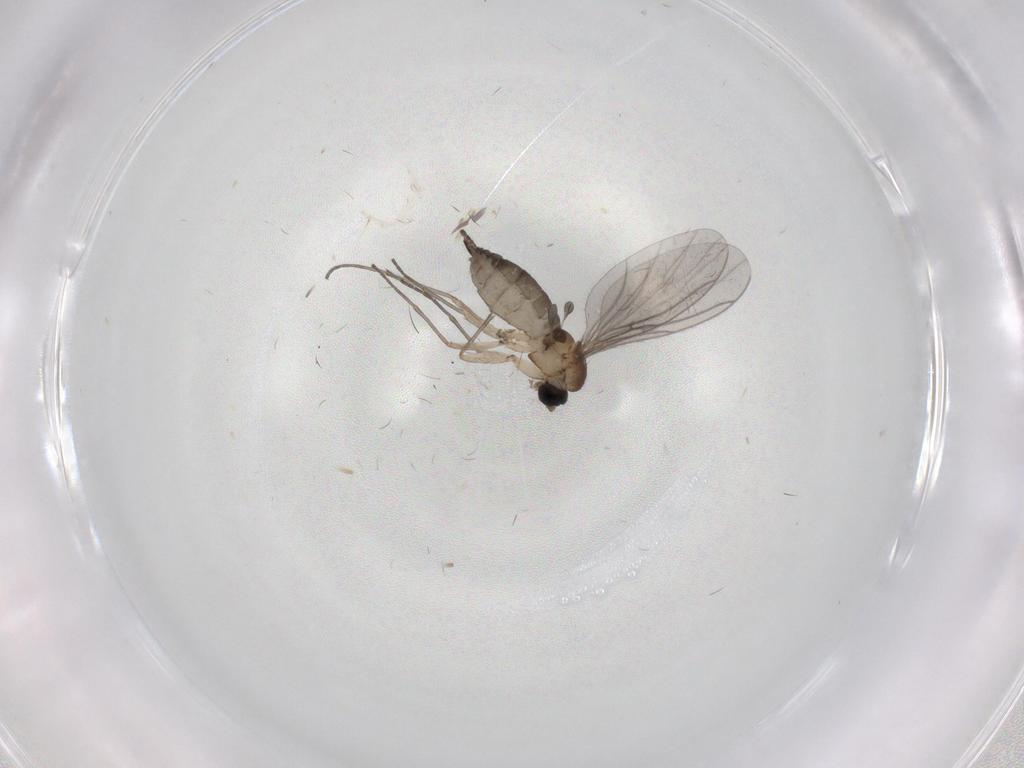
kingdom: Animalia
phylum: Arthropoda
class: Insecta
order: Diptera
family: Sciaridae
